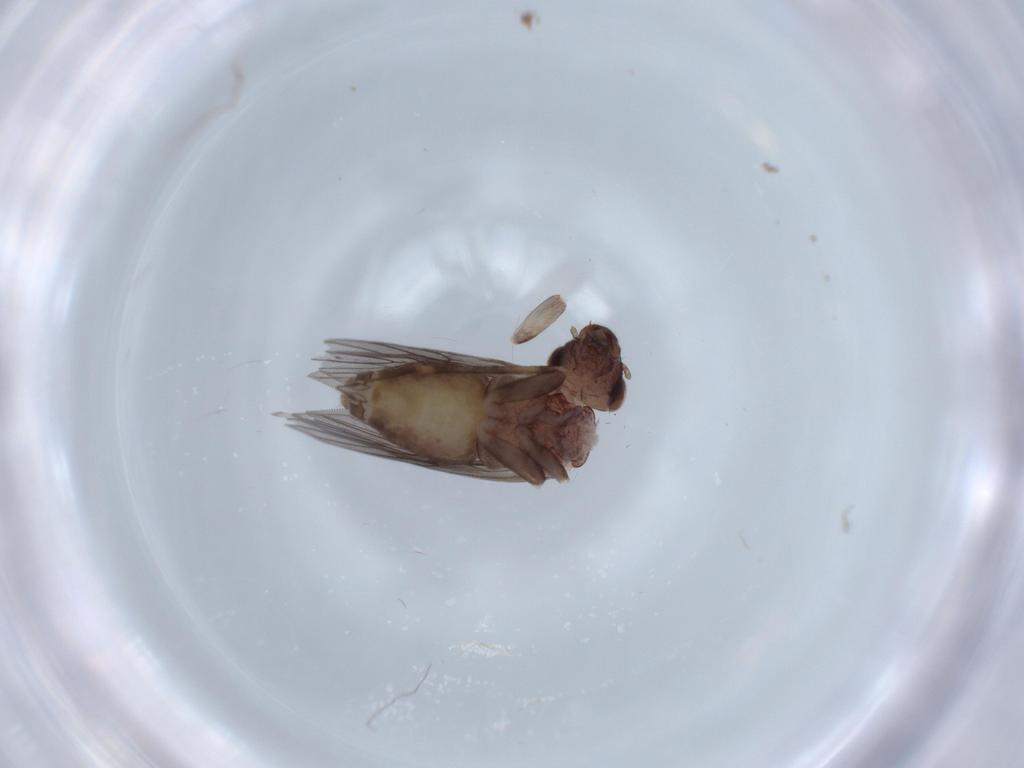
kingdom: Animalia
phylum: Arthropoda
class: Insecta
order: Psocodea
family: Lepidopsocidae
